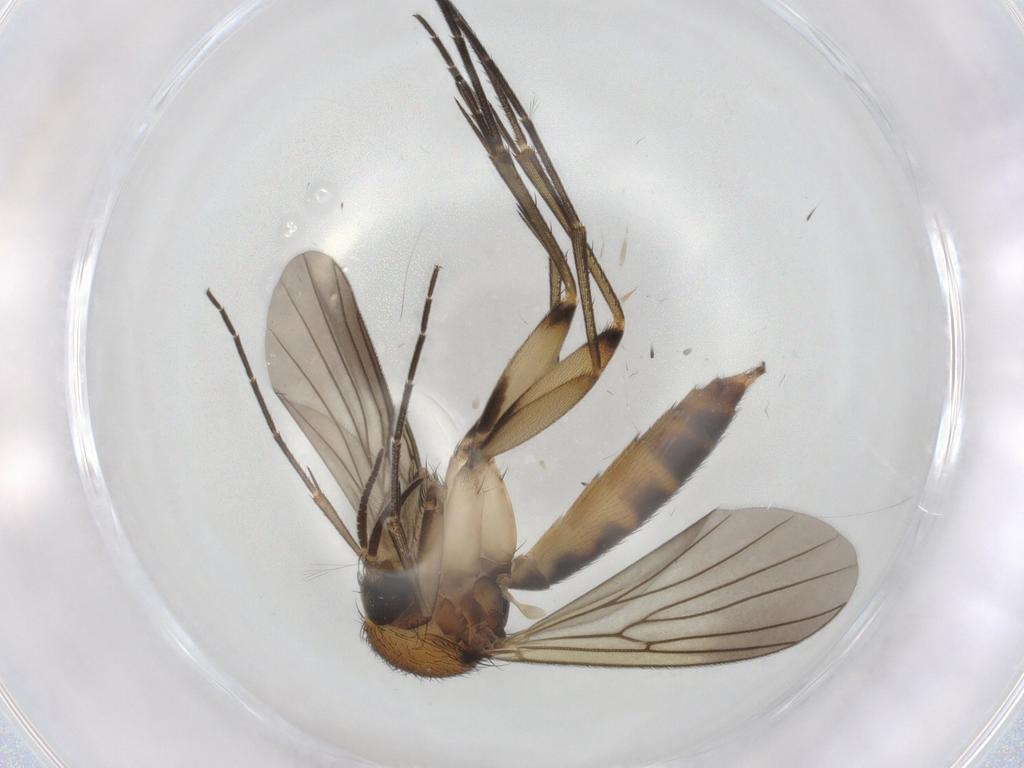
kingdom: Animalia
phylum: Arthropoda
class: Insecta
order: Diptera
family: Mycetophilidae
